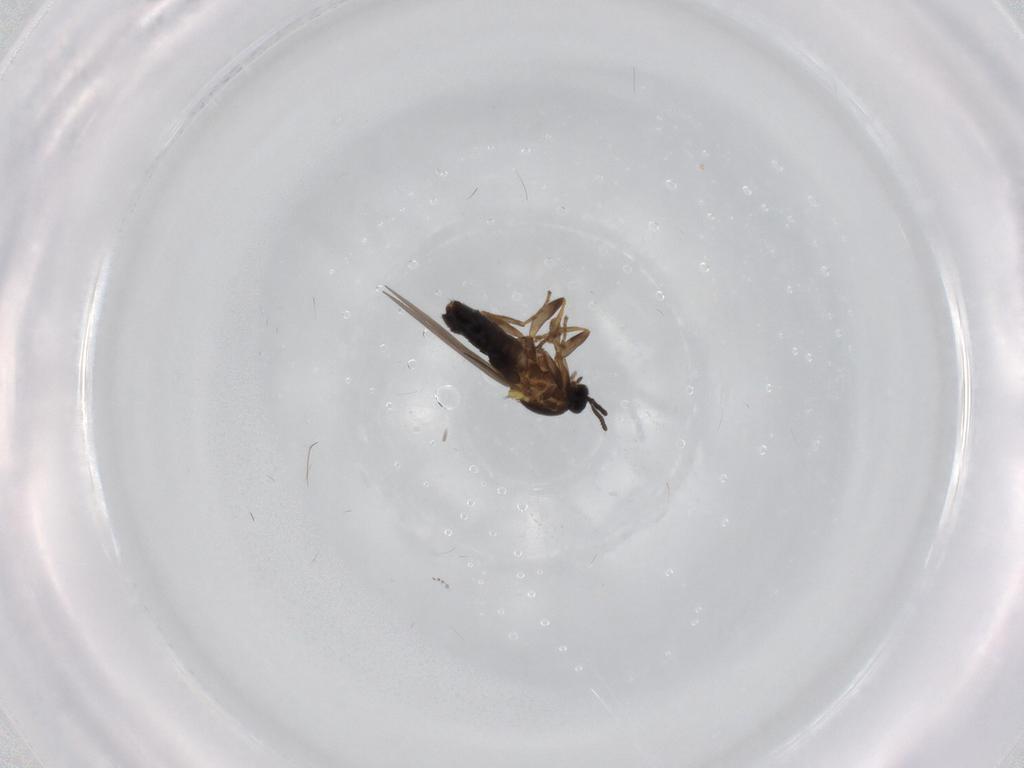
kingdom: Animalia
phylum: Arthropoda
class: Insecta
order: Diptera
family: Scatopsidae
